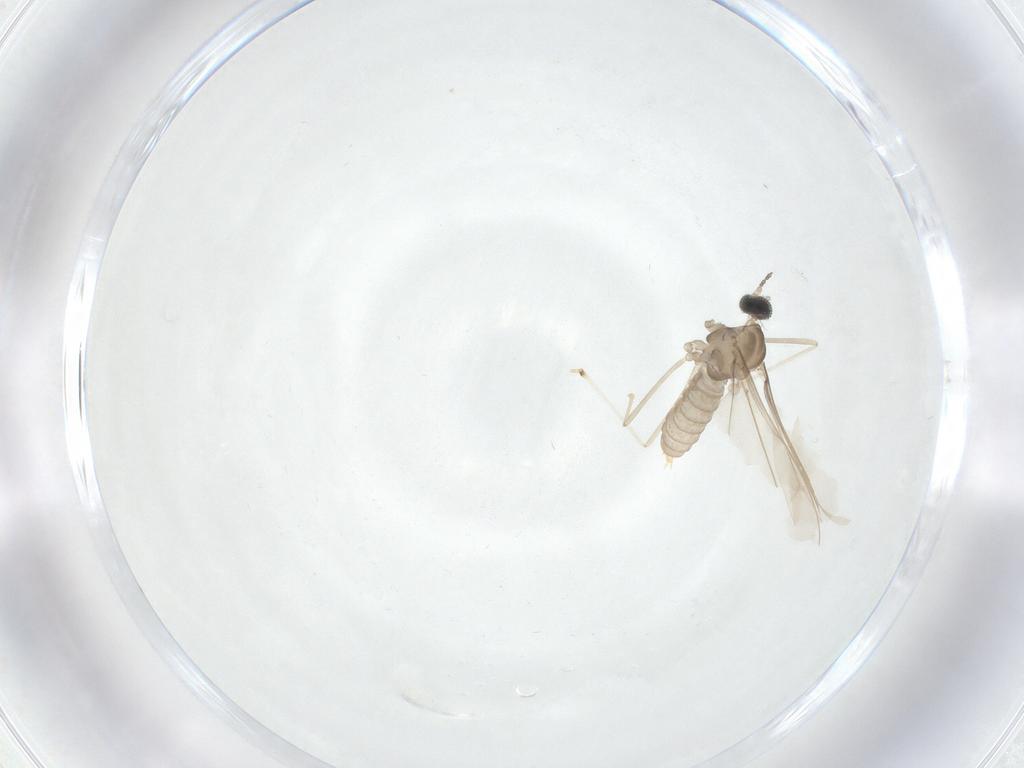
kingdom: Animalia
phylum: Arthropoda
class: Insecta
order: Diptera
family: Cecidomyiidae
